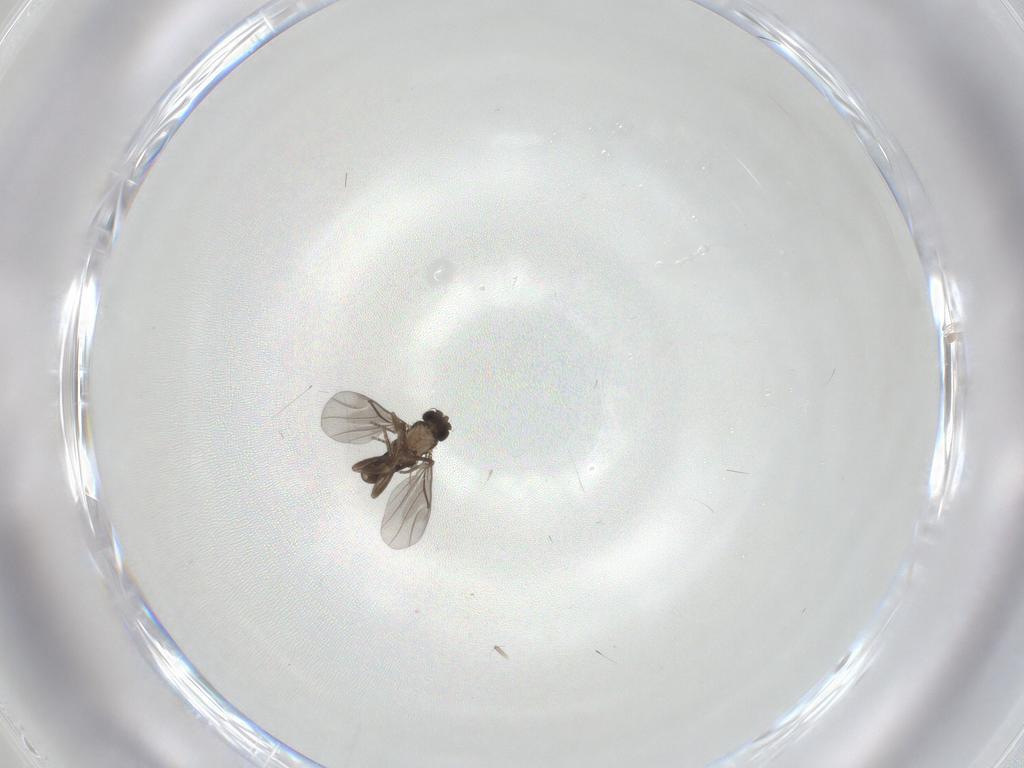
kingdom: Animalia
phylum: Arthropoda
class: Insecta
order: Diptera
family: Phoridae
